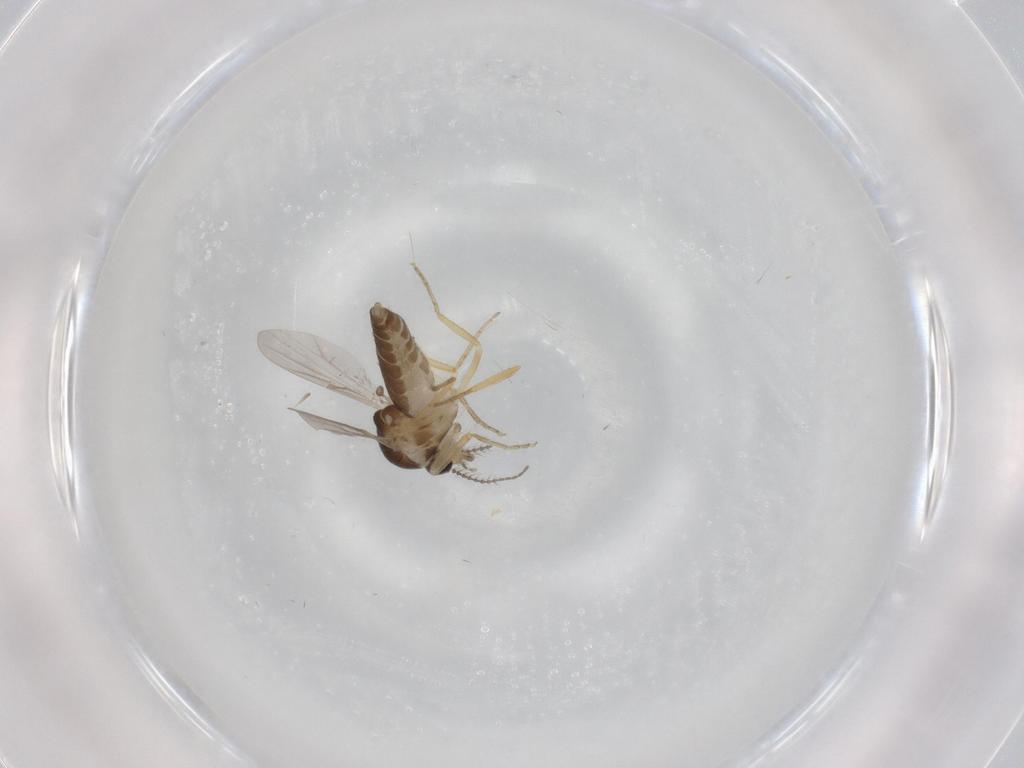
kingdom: Animalia
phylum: Arthropoda
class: Insecta
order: Diptera
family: Ceratopogonidae
